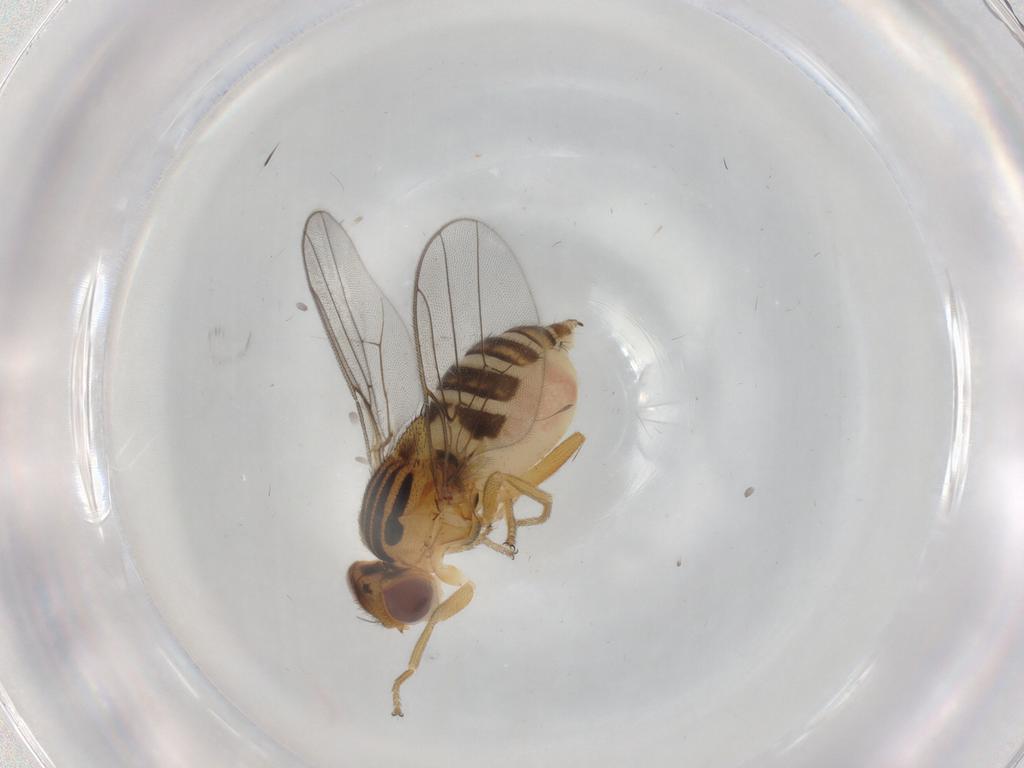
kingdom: Animalia
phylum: Arthropoda
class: Insecta
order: Diptera
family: Chloropidae
